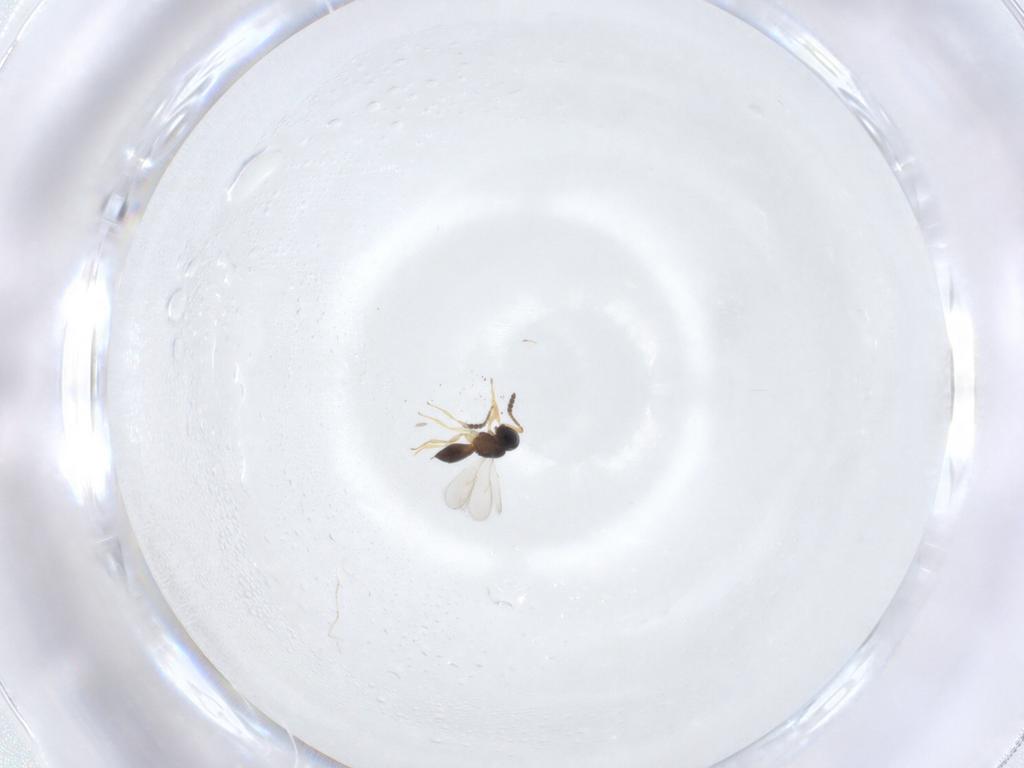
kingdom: Animalia
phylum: Arthropoda
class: Insecta
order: Hymenoptera
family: Scelionidae
